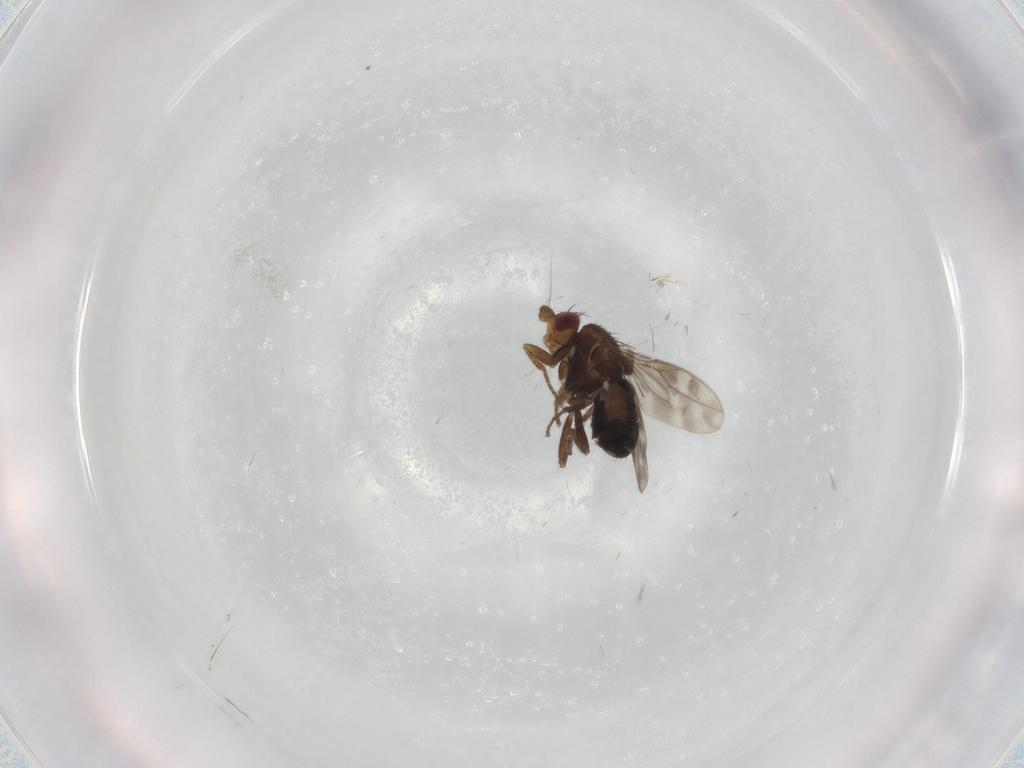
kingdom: Animalia
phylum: Arthropoda
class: Insecta
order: Diptera
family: Sphaeroceridae
